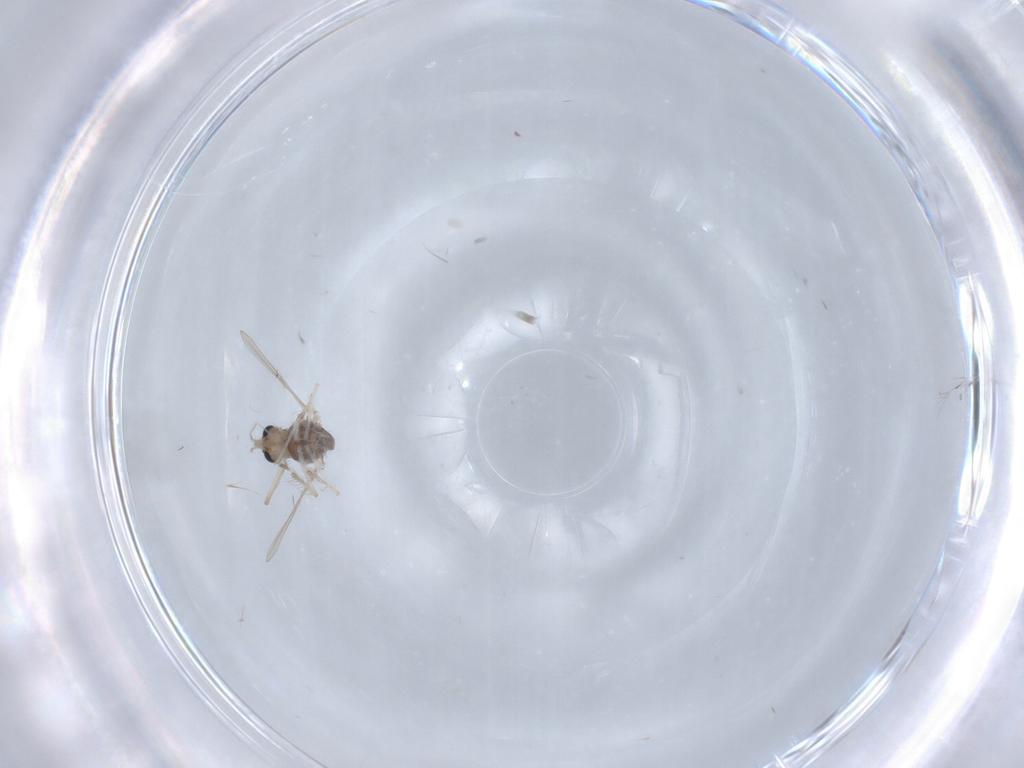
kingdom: Animalia
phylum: Arthropoda
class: Insecta
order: Diptera
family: Chironomidae
